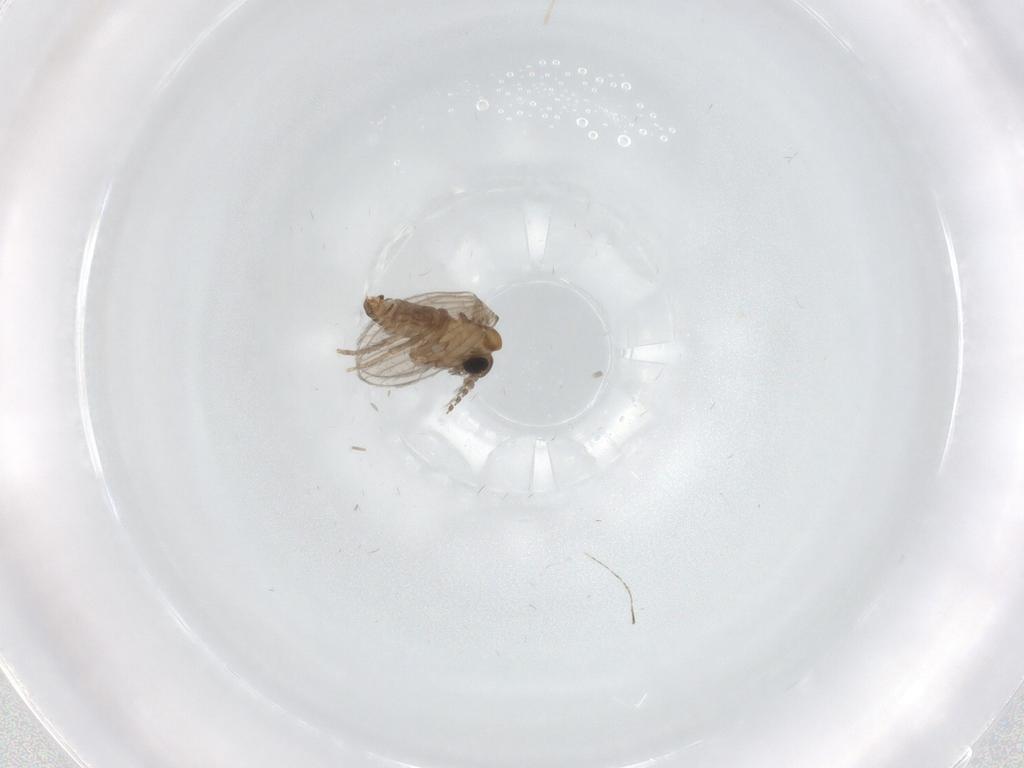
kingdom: Animalia
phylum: Arthropoda
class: Insecta
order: Diptera
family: Psychodidae
